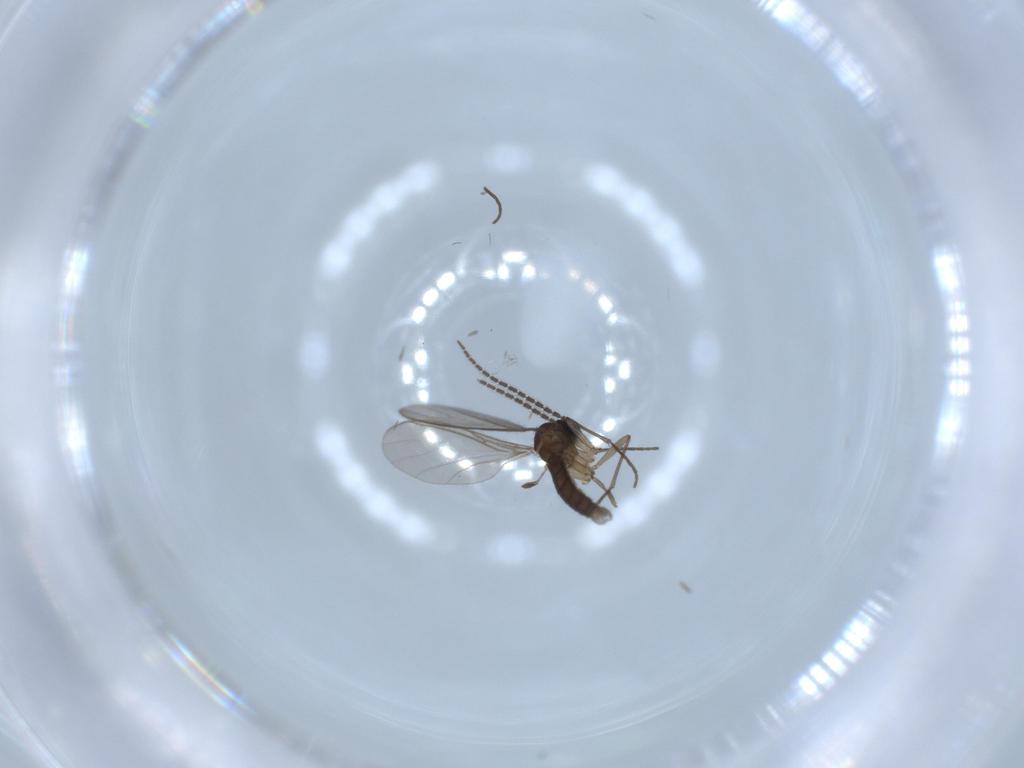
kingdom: Animalia
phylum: Arthropoda
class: Insecta
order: Diptera
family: Sciaridae
